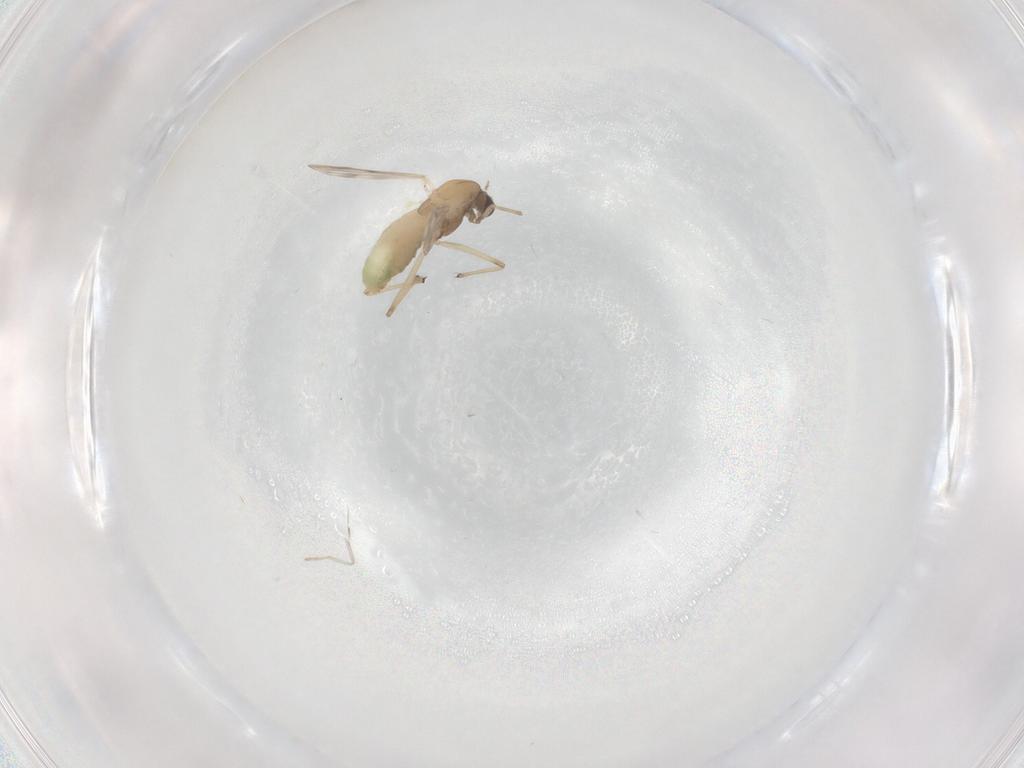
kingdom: Animalia
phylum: Arthropoda
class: Insecta
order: Diptera
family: Chironomidae
